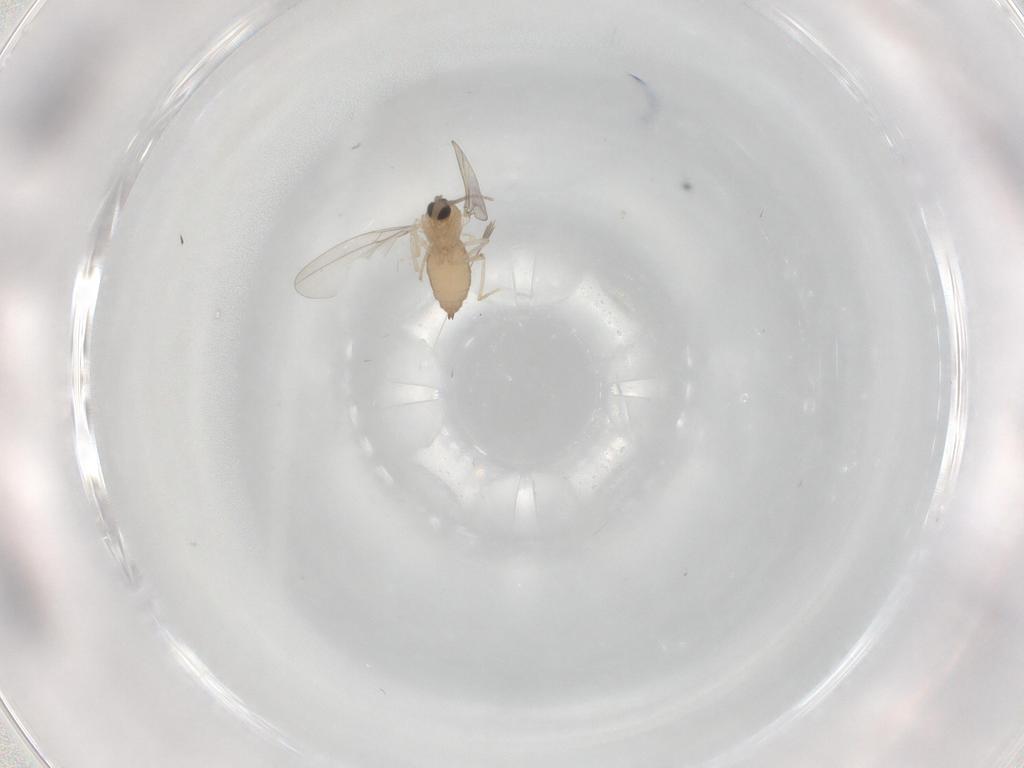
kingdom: Animalia
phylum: Arthropoda
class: Insecta
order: Diptera
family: Cecidomyiidae
